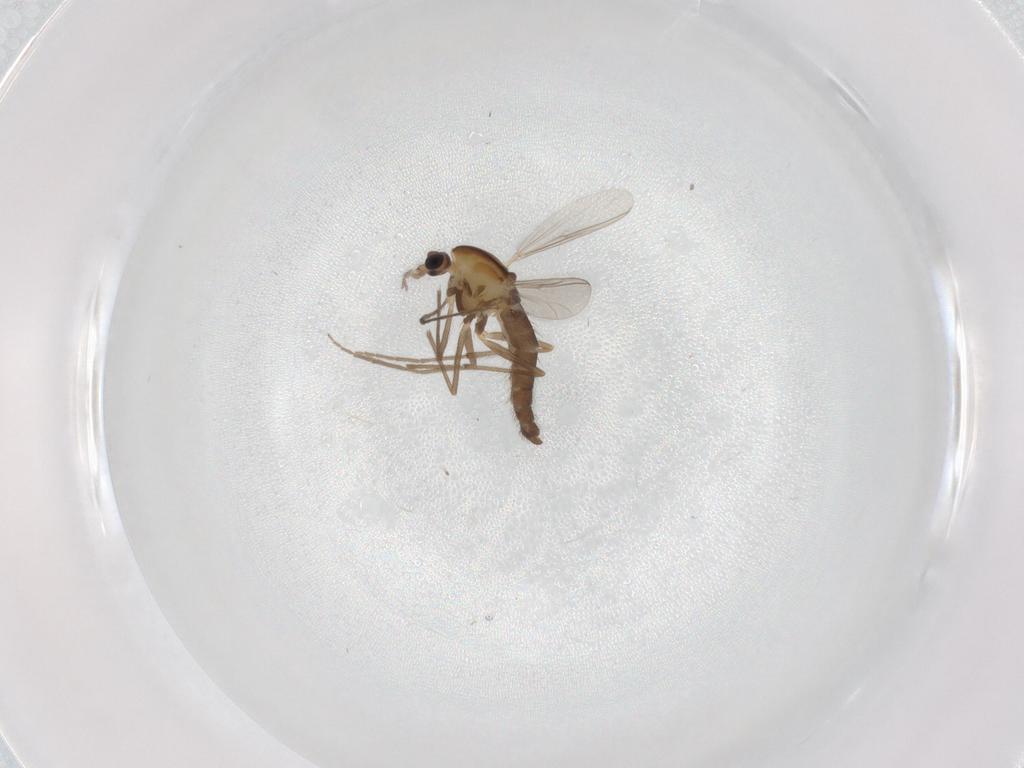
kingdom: Animalia
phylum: Arthropoda
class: Insecta
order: Diptera
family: Chironomidae
